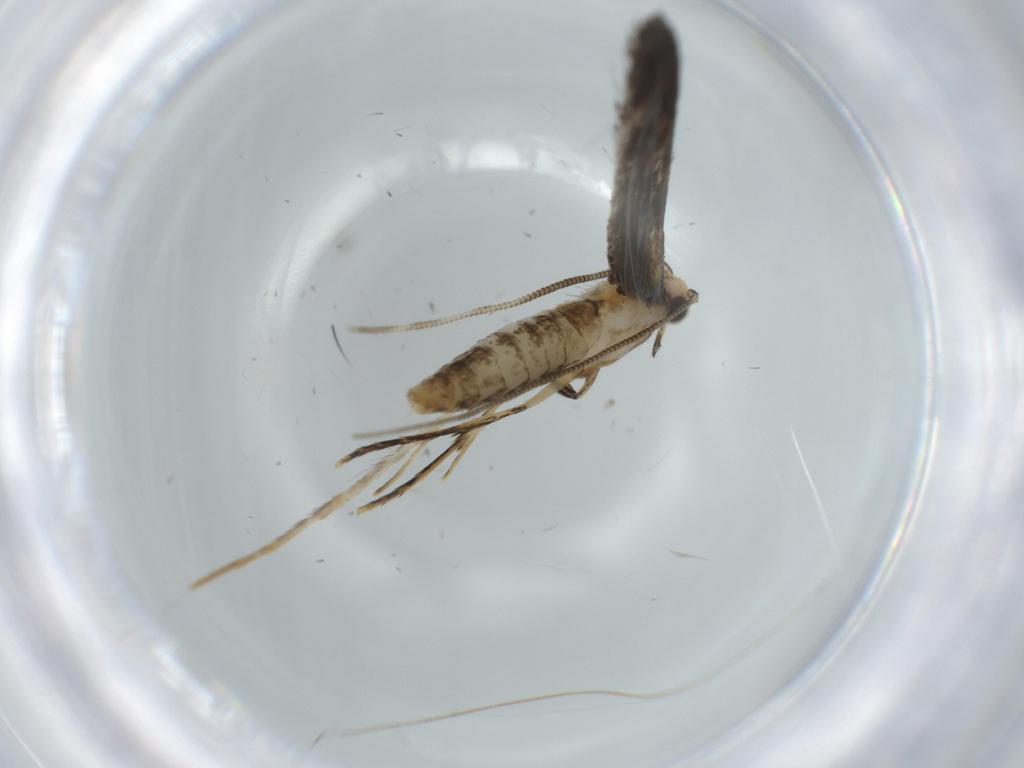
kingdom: Animalia
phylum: Arthropoda
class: Insecta
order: Lepidoptera
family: Tineidae
